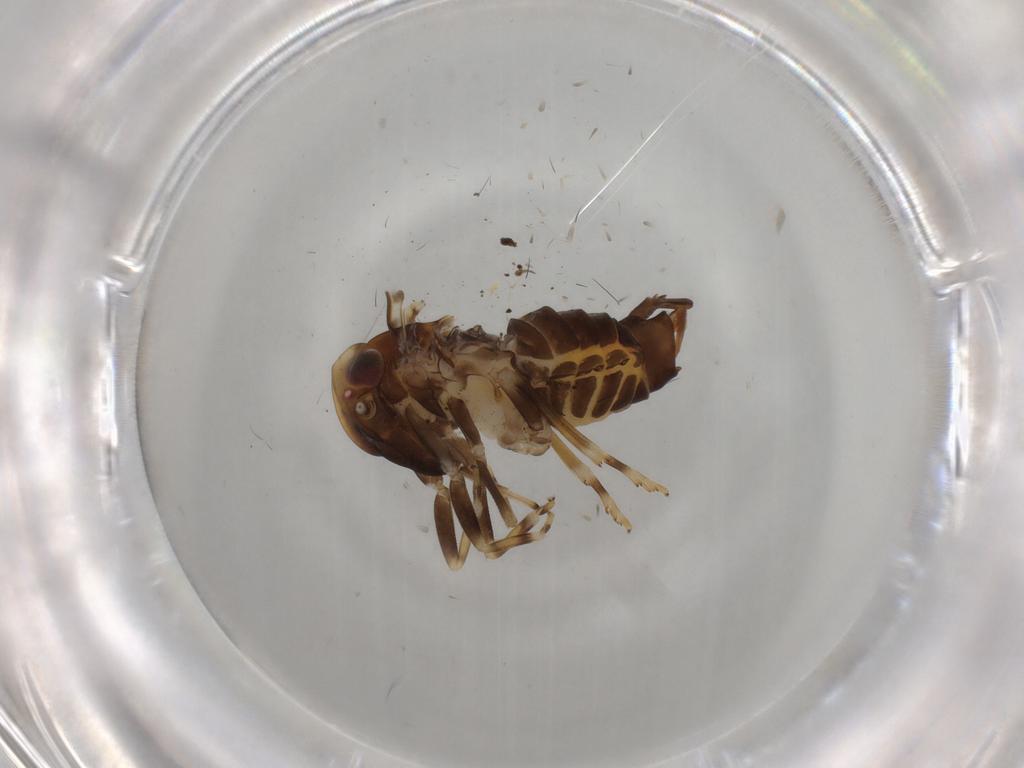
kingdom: Animalia
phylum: Arthropoda
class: Insecta
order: Hemiptera
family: Cixiidae
